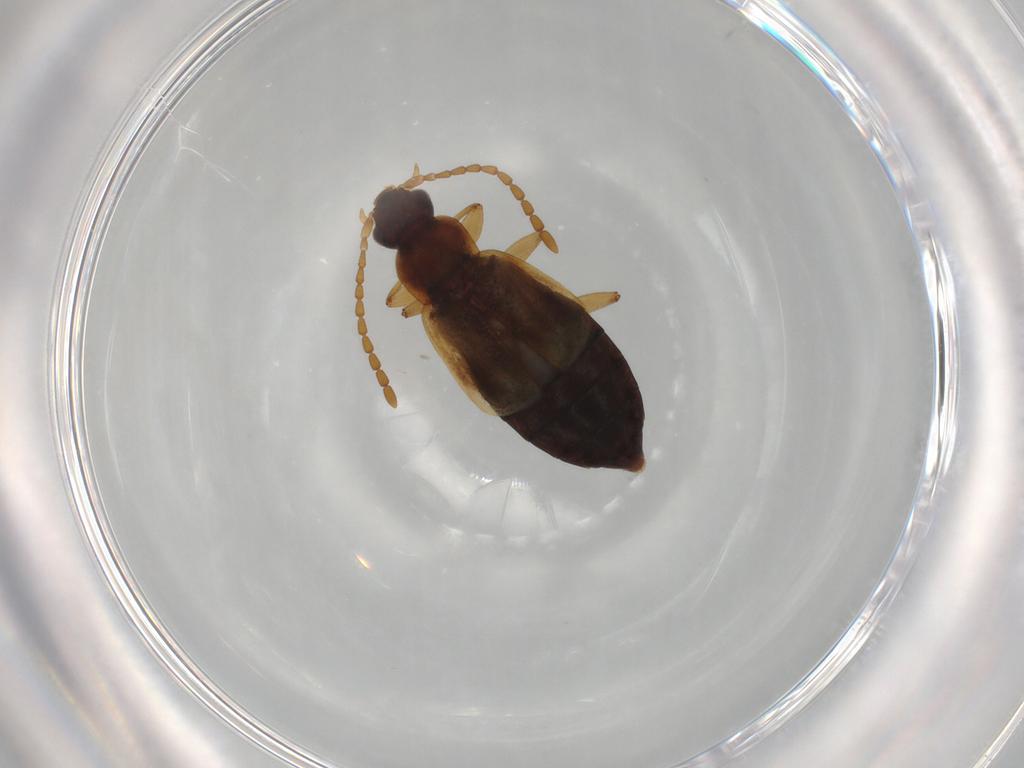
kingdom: Animalia
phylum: Arthropoda
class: Insecta
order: Coleoptera
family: Staphylinidae
